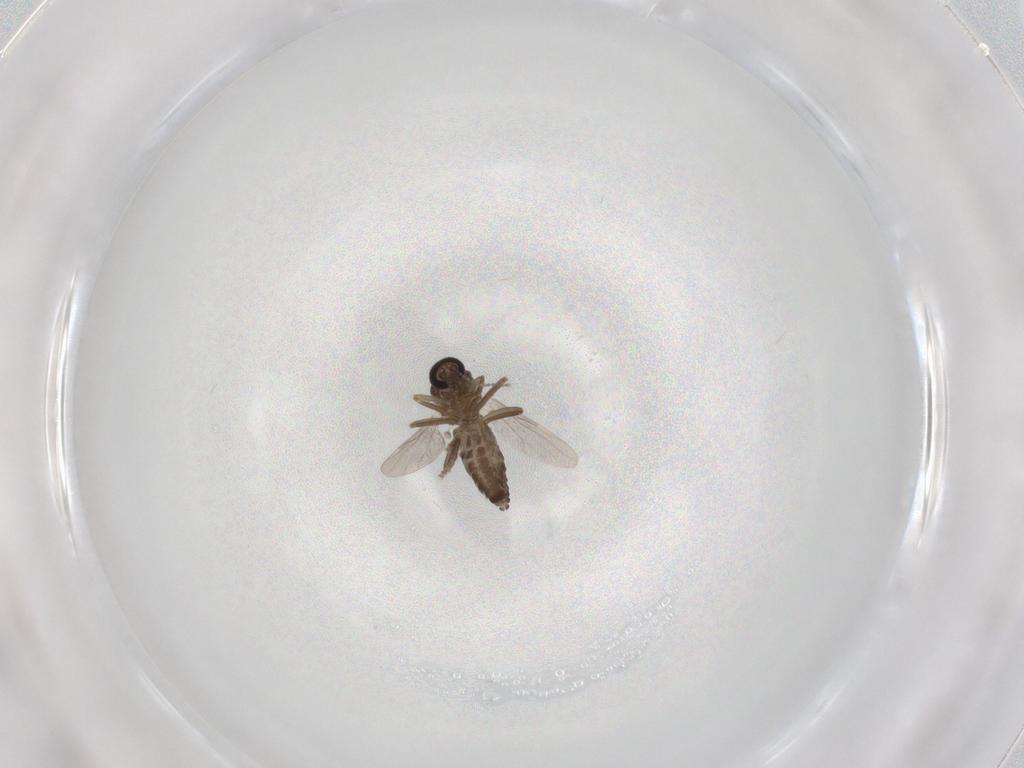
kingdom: Animalia
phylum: Arthropoda
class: Insecta
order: Diptera
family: Ceratopogonidae
